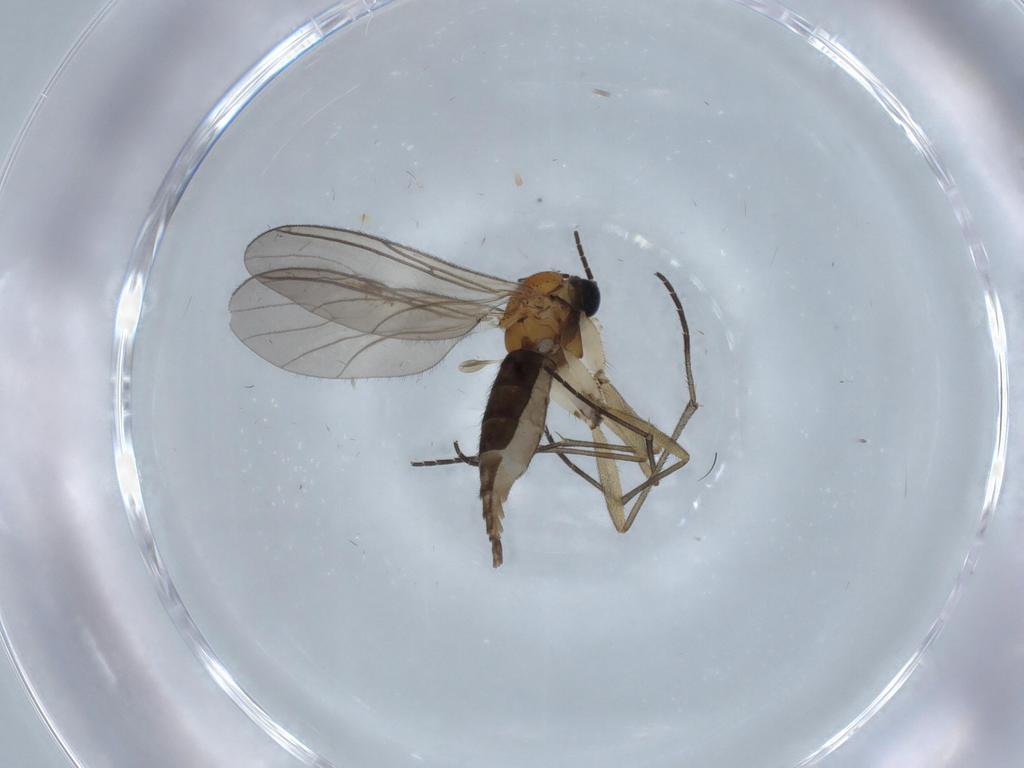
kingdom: Animalia
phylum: Arthropoda
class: Insecta
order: Diptera
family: Sciaridae
